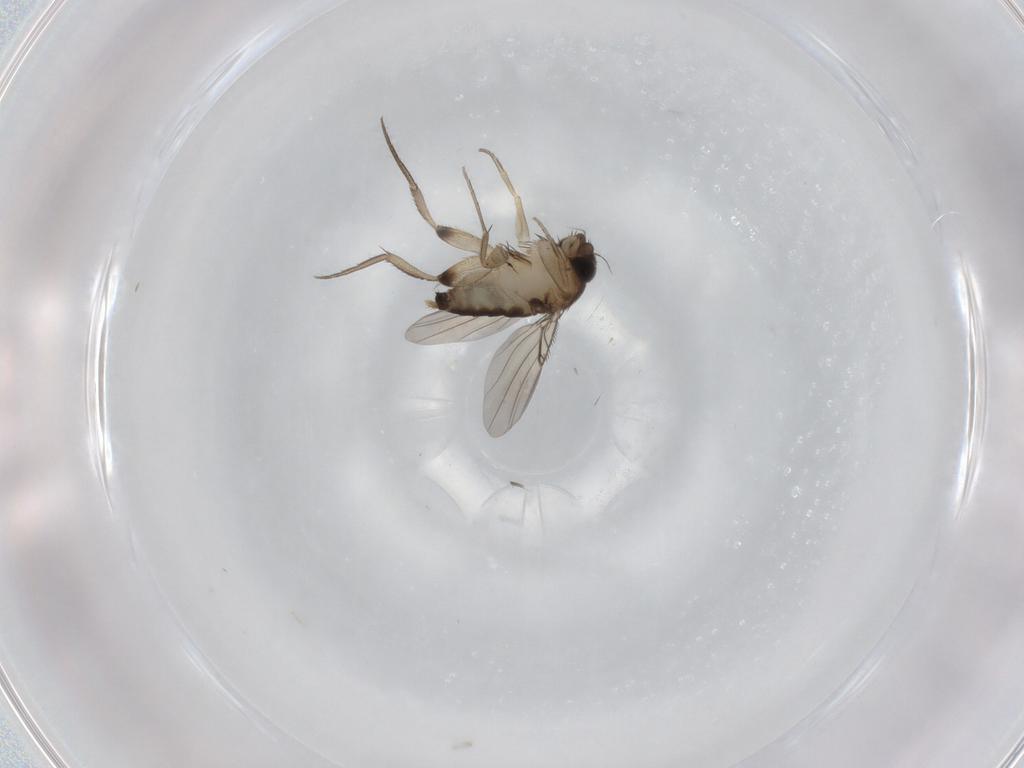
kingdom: Animalia
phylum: Arthropoda
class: Insecta
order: Diptera
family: Phoridae
